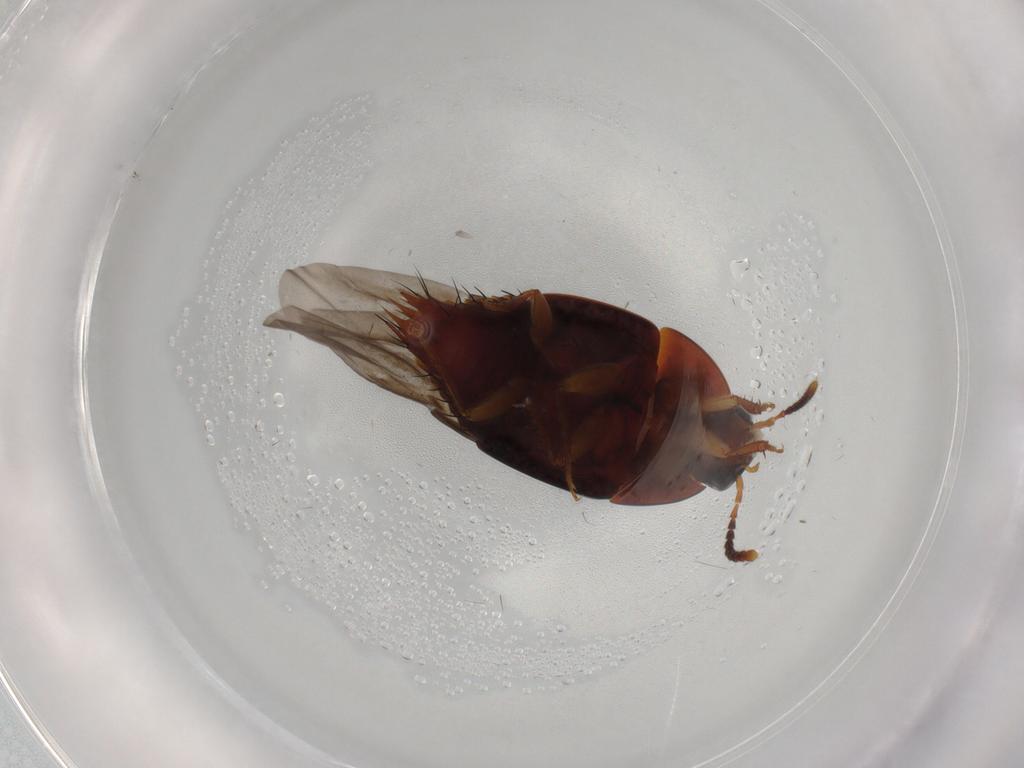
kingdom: Animalia
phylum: Arthropoda
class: Insecta
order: Coleoptera
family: Staphylinidae
